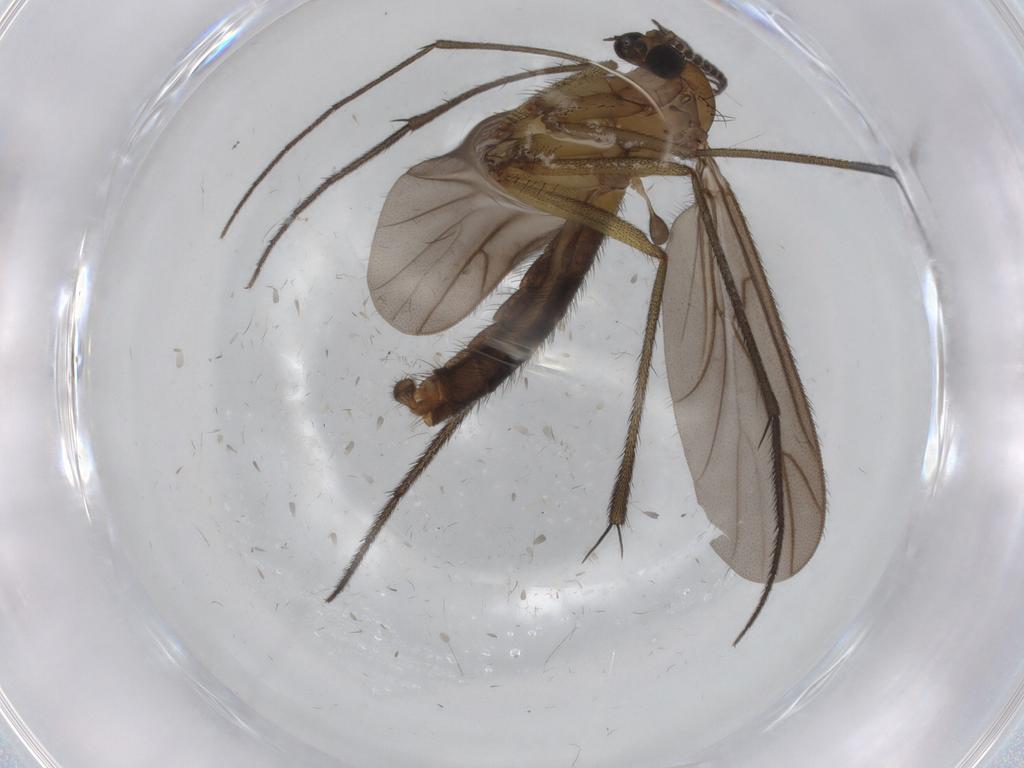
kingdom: Animalia
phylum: Arthropoda
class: Insecta
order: Diptera
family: Ditomyiidae
